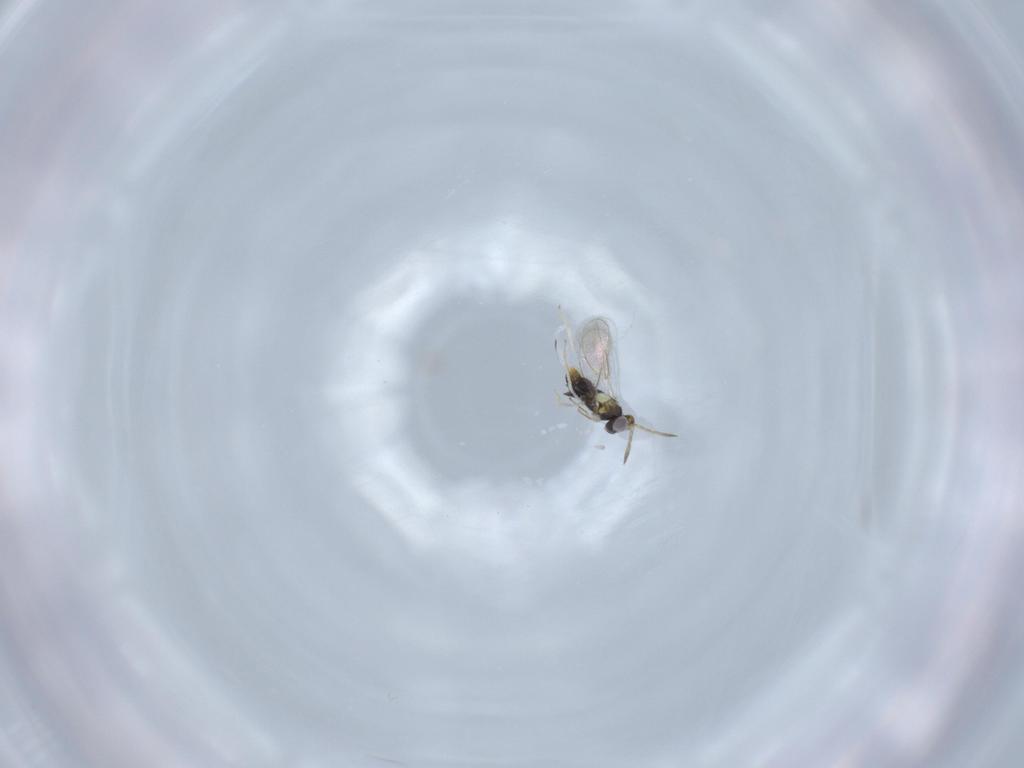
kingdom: Animalia
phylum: Arthropoda
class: Insecta
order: Hymenoptera
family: Aphelinidae
